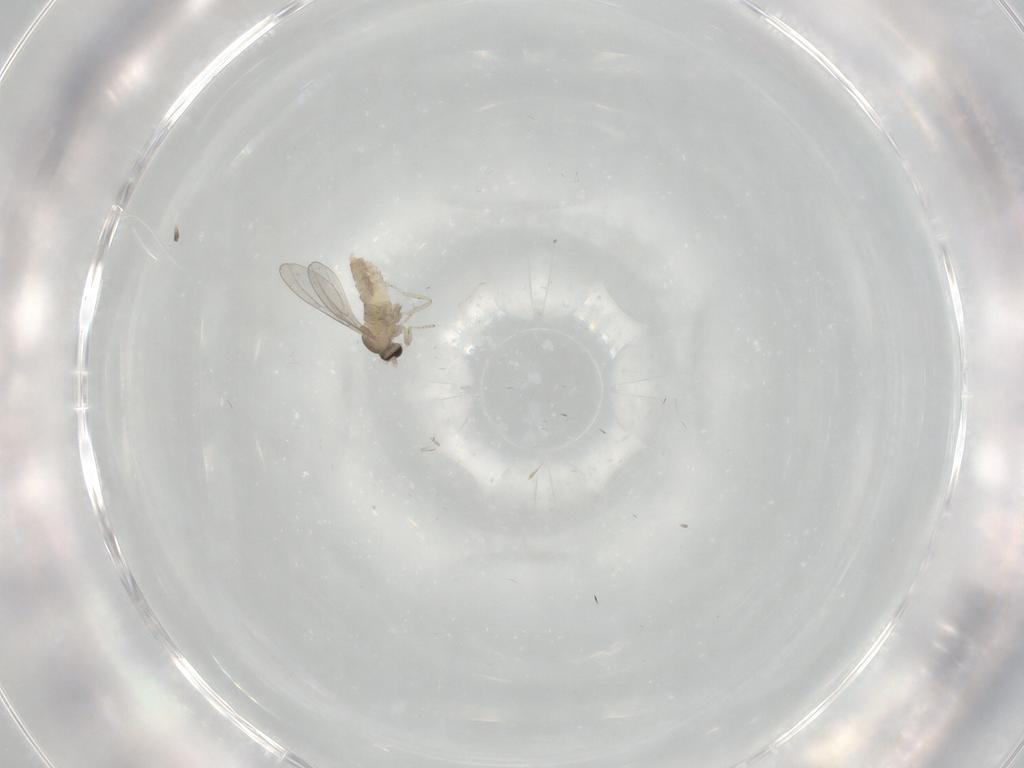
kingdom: Animalia
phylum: Arthropoda
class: Insecta
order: Diptera
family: Cecidomyiidae
